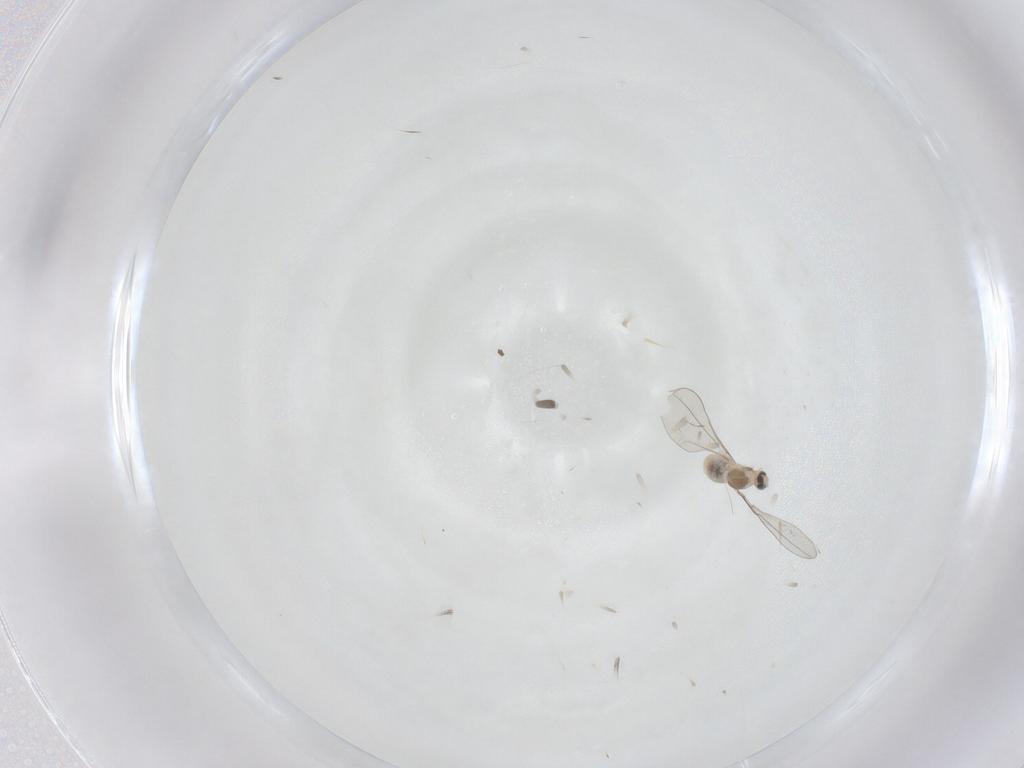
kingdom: Animalia
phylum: Arthropoda
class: Insecta
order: Diptera
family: Cecidomyiidae
